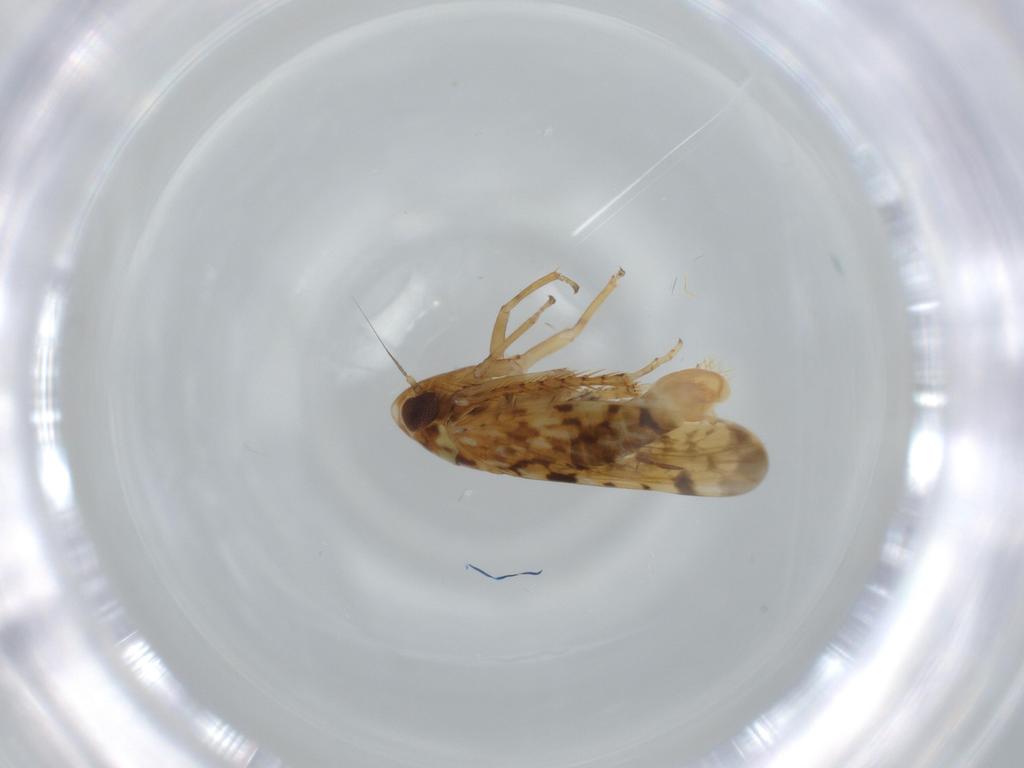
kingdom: Animalia
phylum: Arthropoda
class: Insecta
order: Hemiptera
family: Cicadellidae
